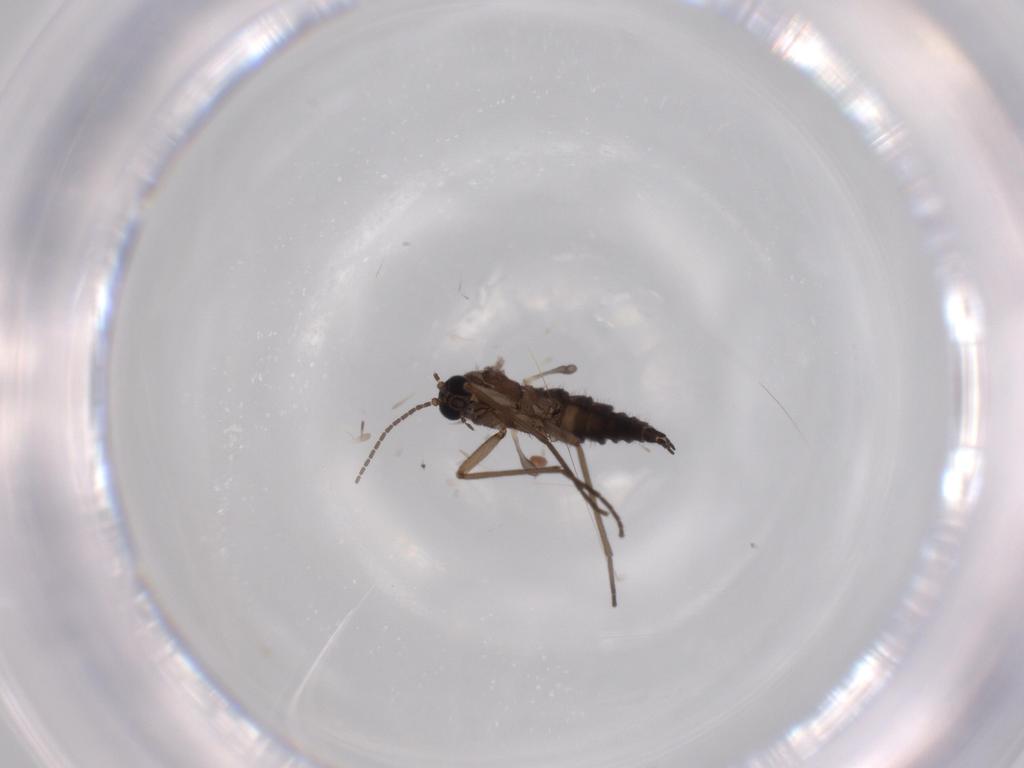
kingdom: Animalia
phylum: Arthropoda
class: Insecta
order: Diptera
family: Sciaridae
